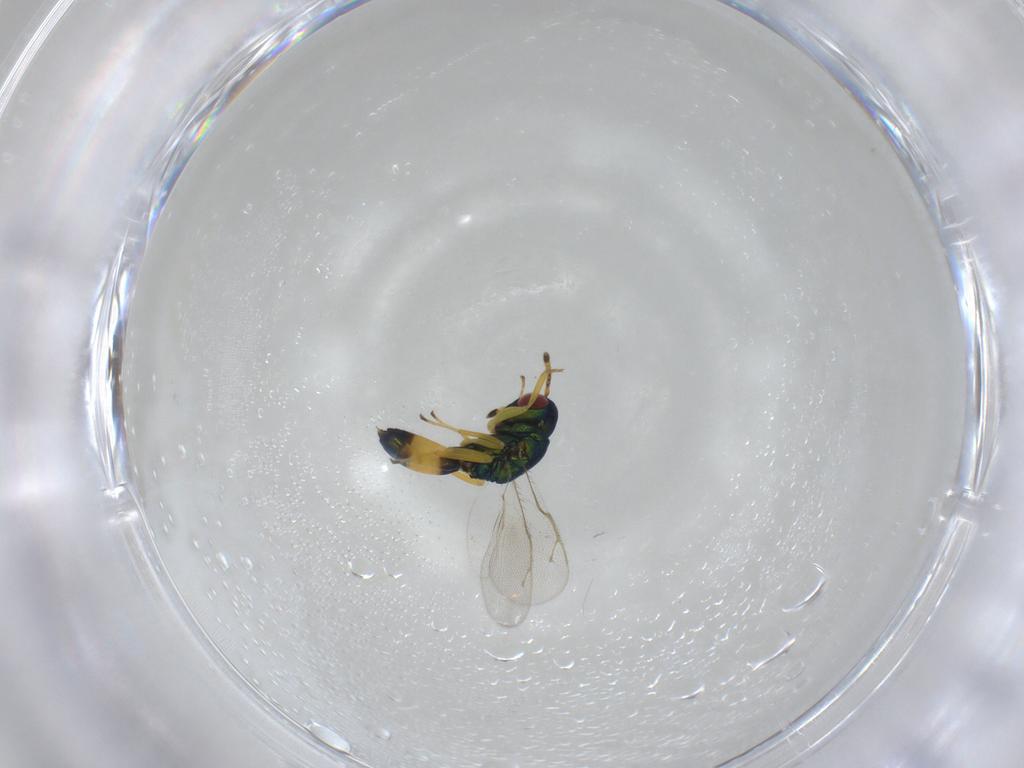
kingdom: Animalia
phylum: Arthropoda
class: Insecta
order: Hymenoptera
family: Pteromalidae
